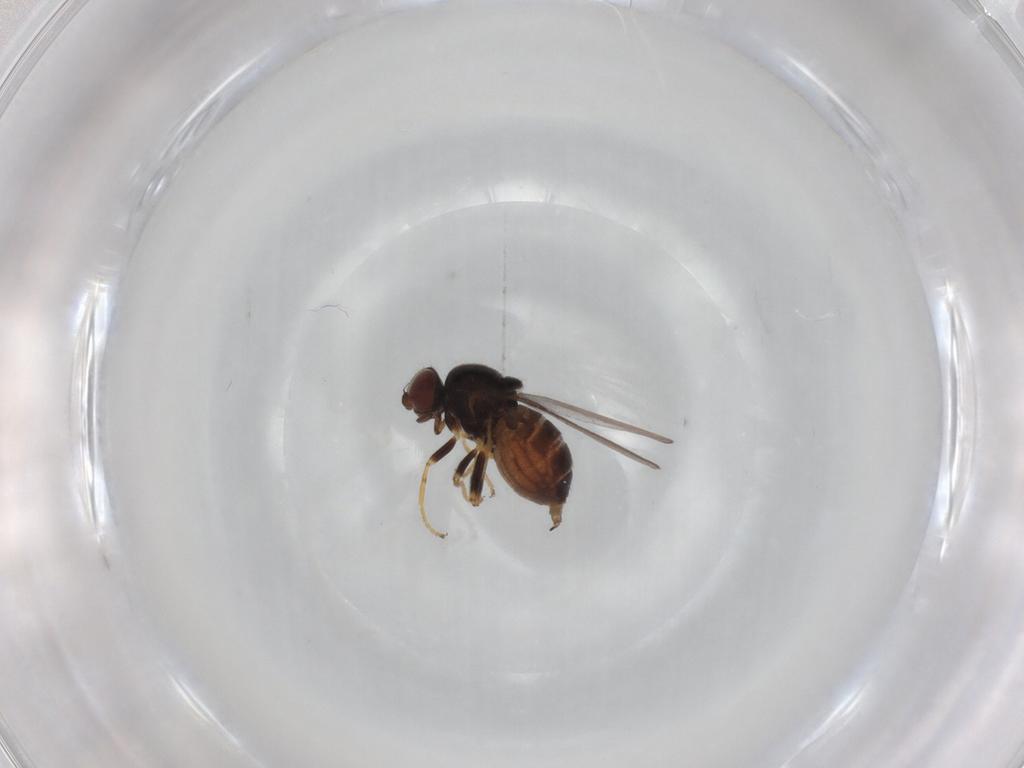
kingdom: Animalia
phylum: Arthropoda
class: Insecta
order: Diptera
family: Chloropidae
